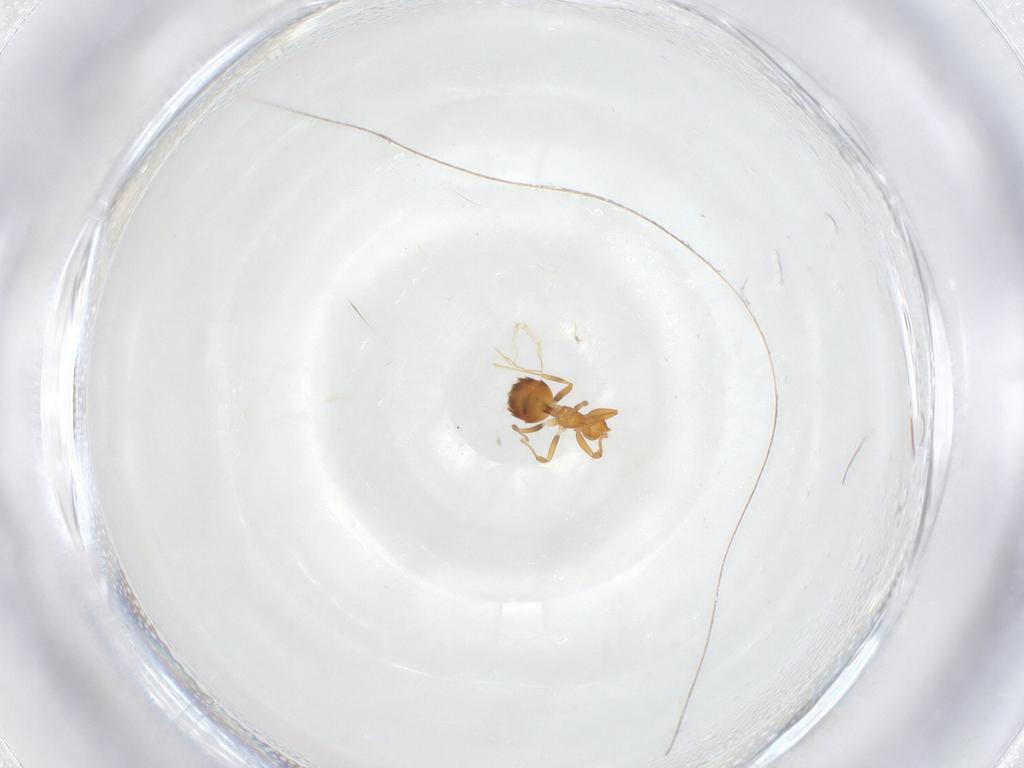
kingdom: Animalia
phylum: Arthropoda
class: Insecta
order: Hymenoptera
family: Formicidae
